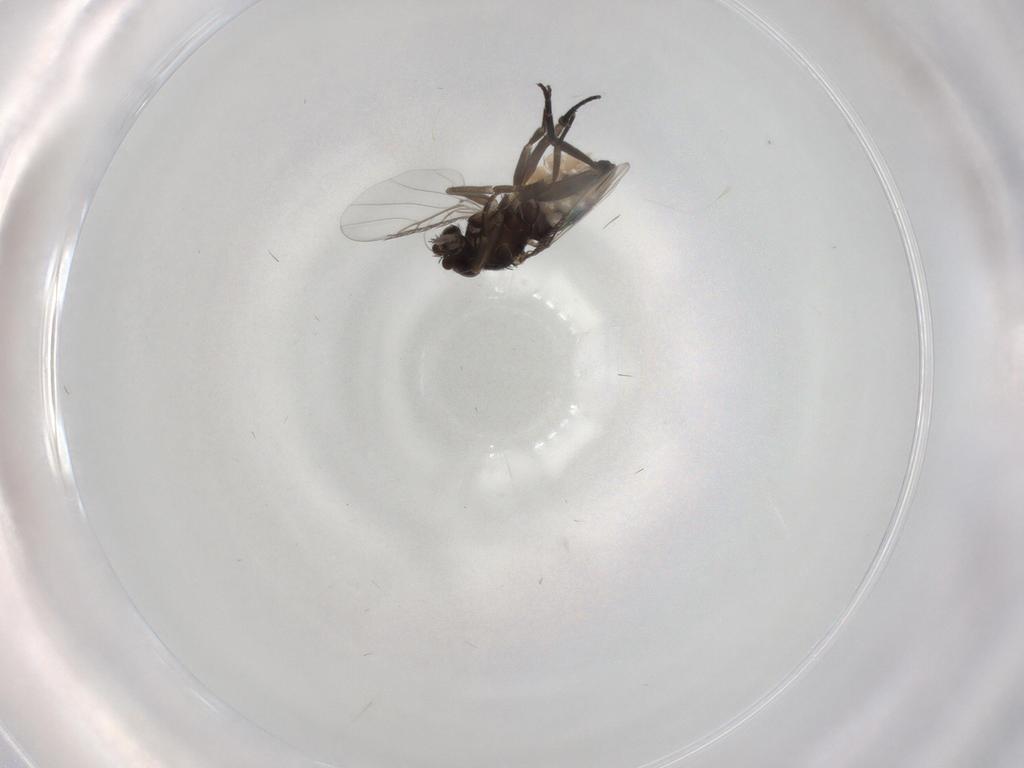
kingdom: Animalia
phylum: Arthropoda
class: Insecta
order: Diptera
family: Phoridae
